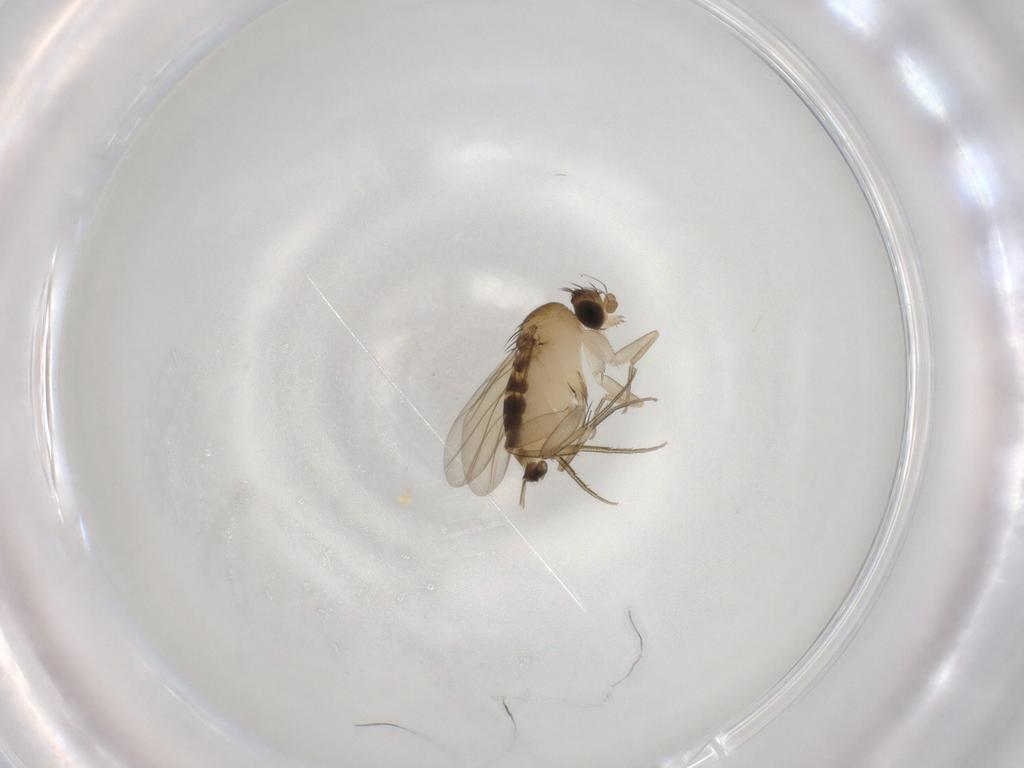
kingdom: Animalia
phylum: Arthropoda
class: Insecta
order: Diptera
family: Phoridae
